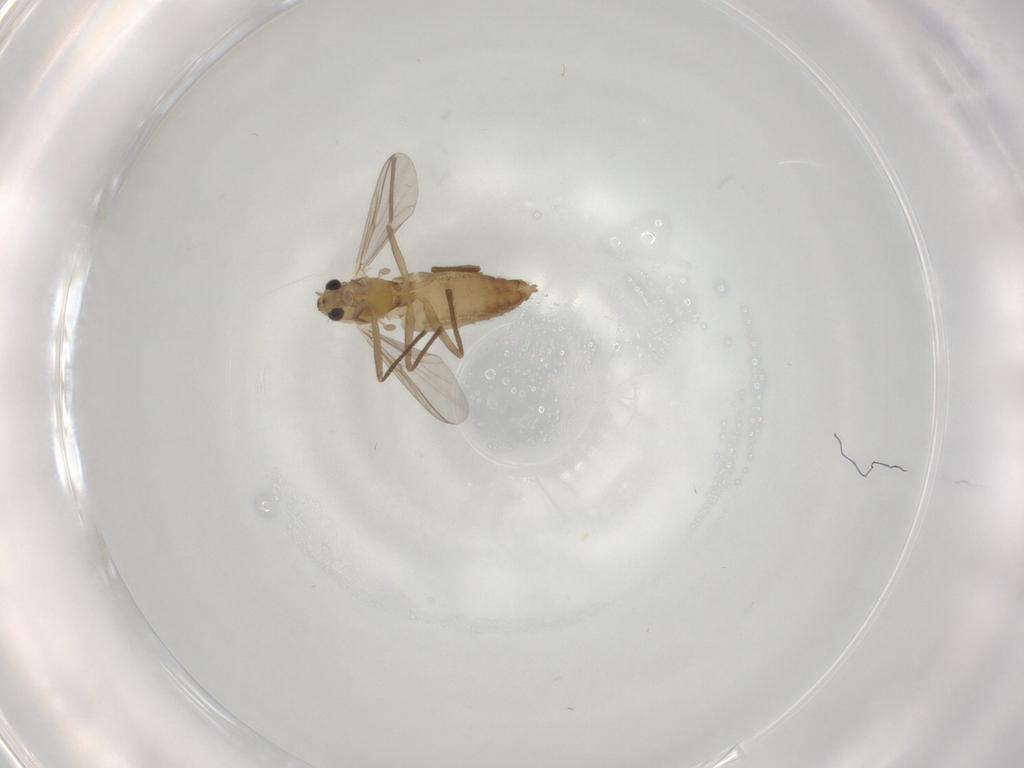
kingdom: Animalia
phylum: Arthropoda
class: Insecta
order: Diptera
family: Chironomidae
